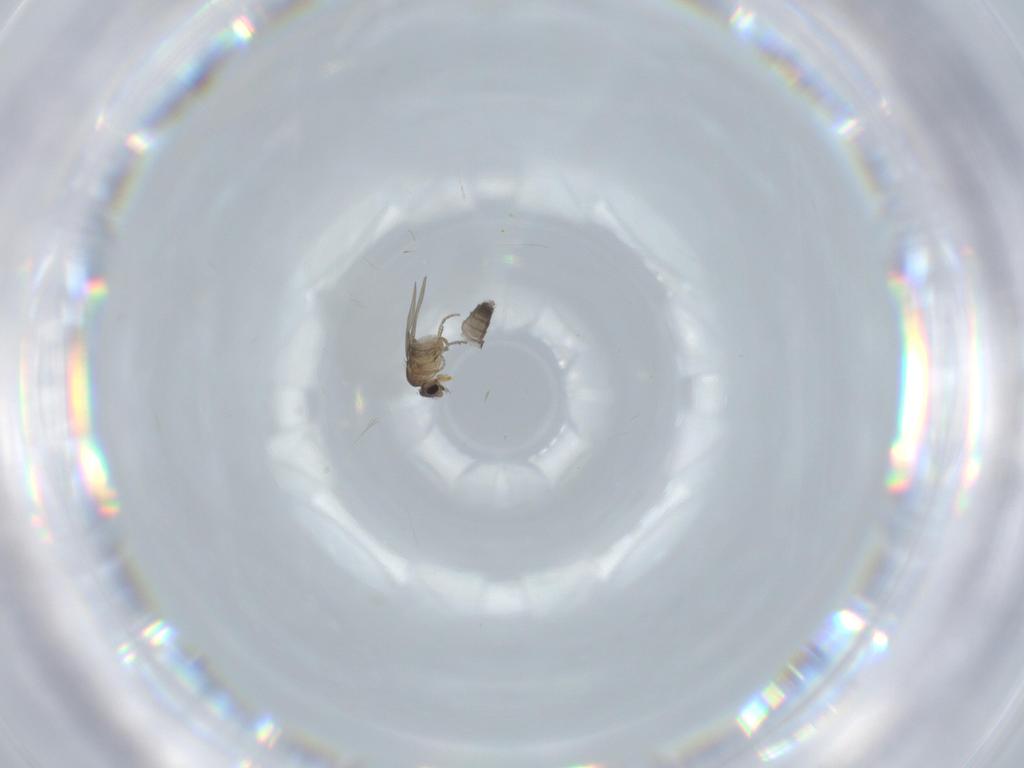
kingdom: Animalia
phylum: Arthropoda
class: Insecta
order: Diptera
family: Phoridae
